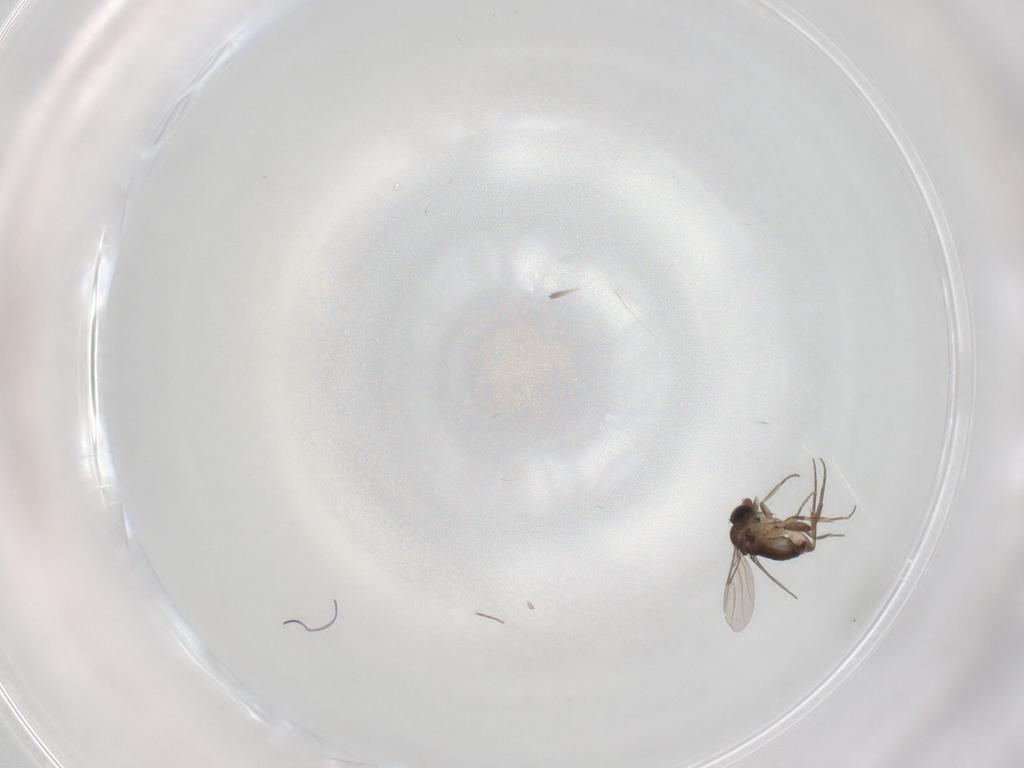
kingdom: Animalia
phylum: Arthropoda
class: Insecta
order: Diptera
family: Phoridae
